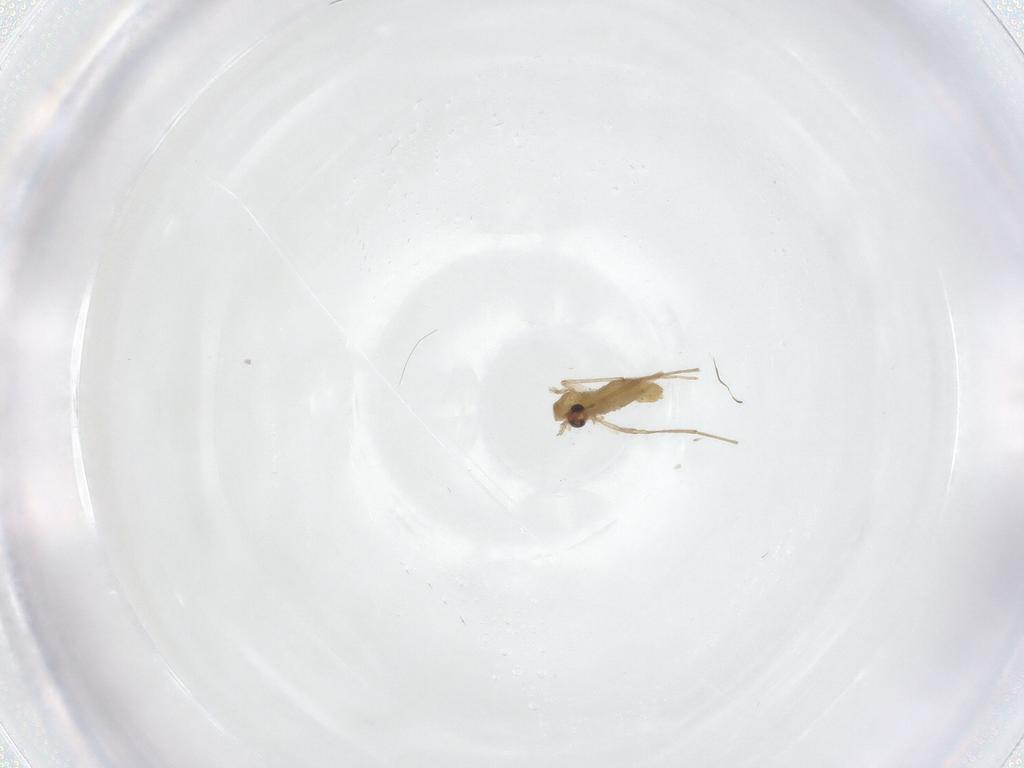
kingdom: Animalia
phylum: Arthropoda
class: Insecta
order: Diptera
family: Chironomidae
